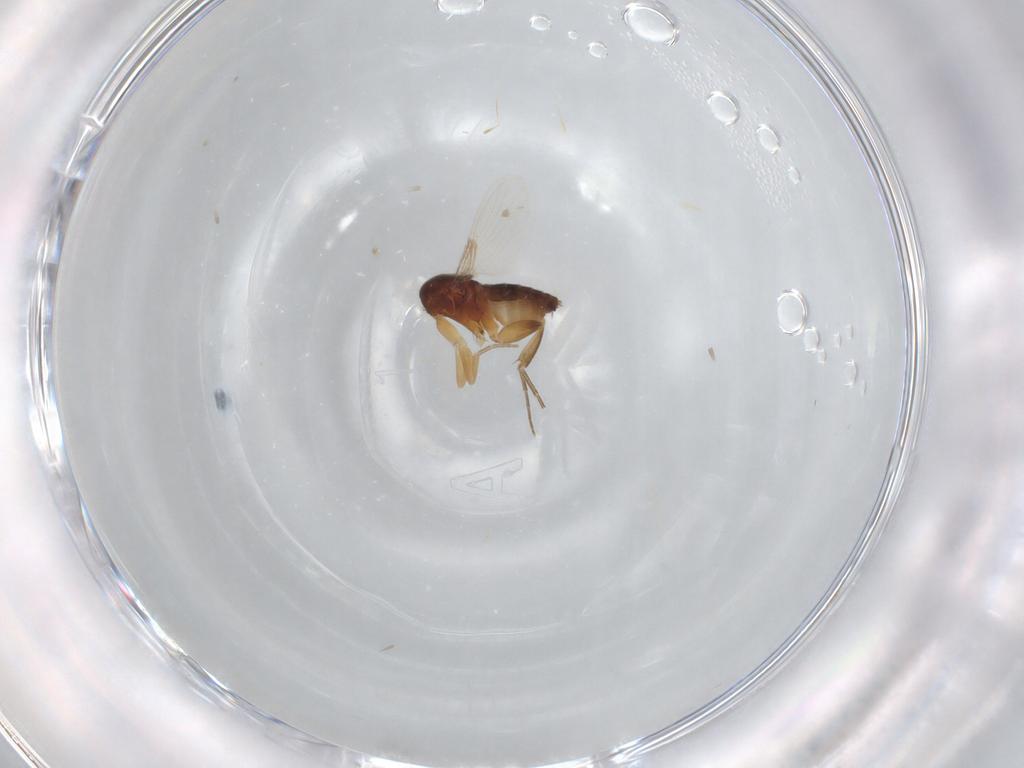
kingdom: Animalia
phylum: Arthropoda
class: Insecta
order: Diptera
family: Phoridae
